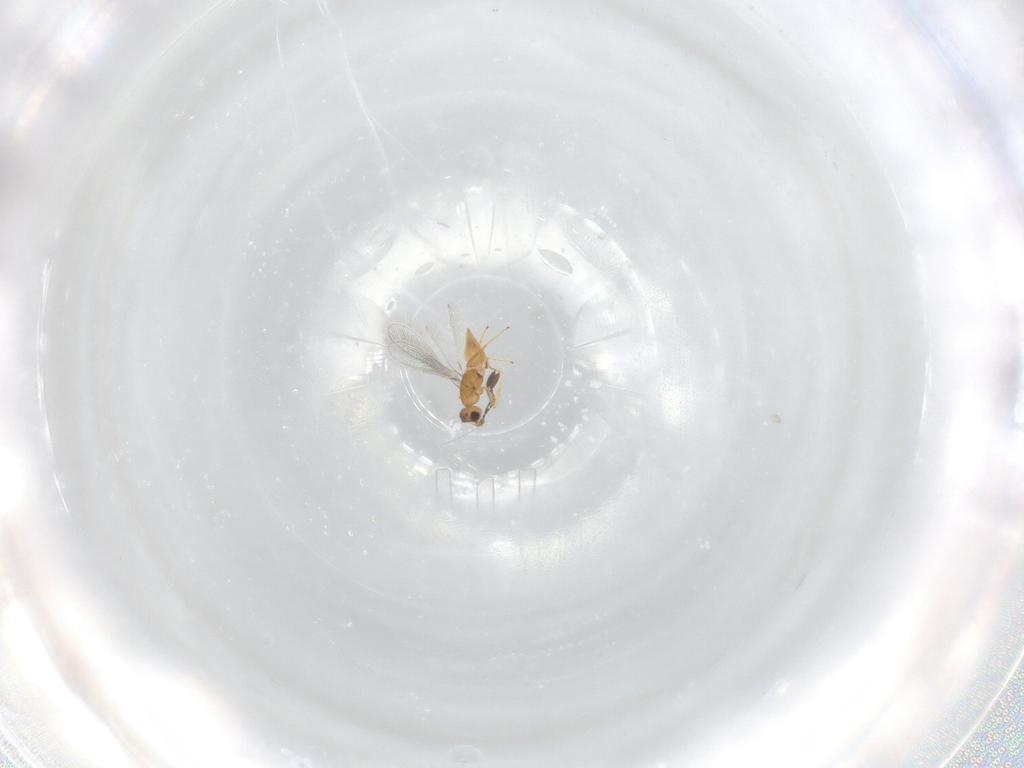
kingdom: Animalia
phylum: Arthropoda
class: Insecta
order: Hymenoptera
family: Mymaridae
